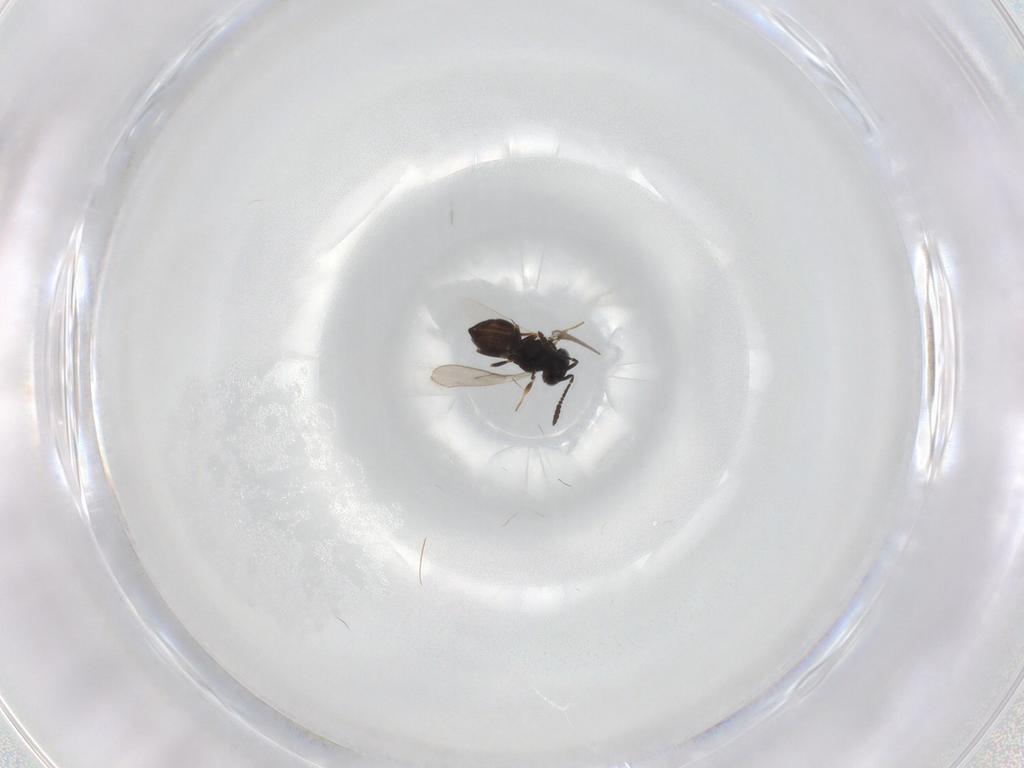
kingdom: Animalia
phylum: Arthropoda
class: Insecta
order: Hymenoptera
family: Scelionidae
